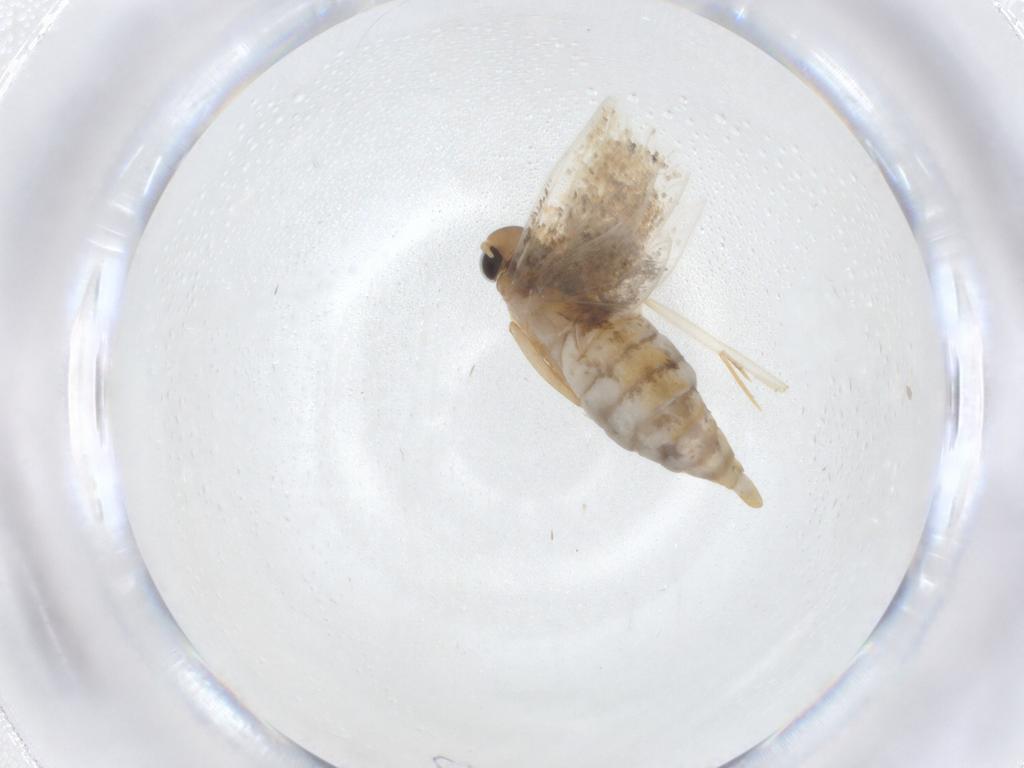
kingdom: Animalia
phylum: Arthropoda
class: Insecta
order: Lepidoptera
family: Oecophoridae
